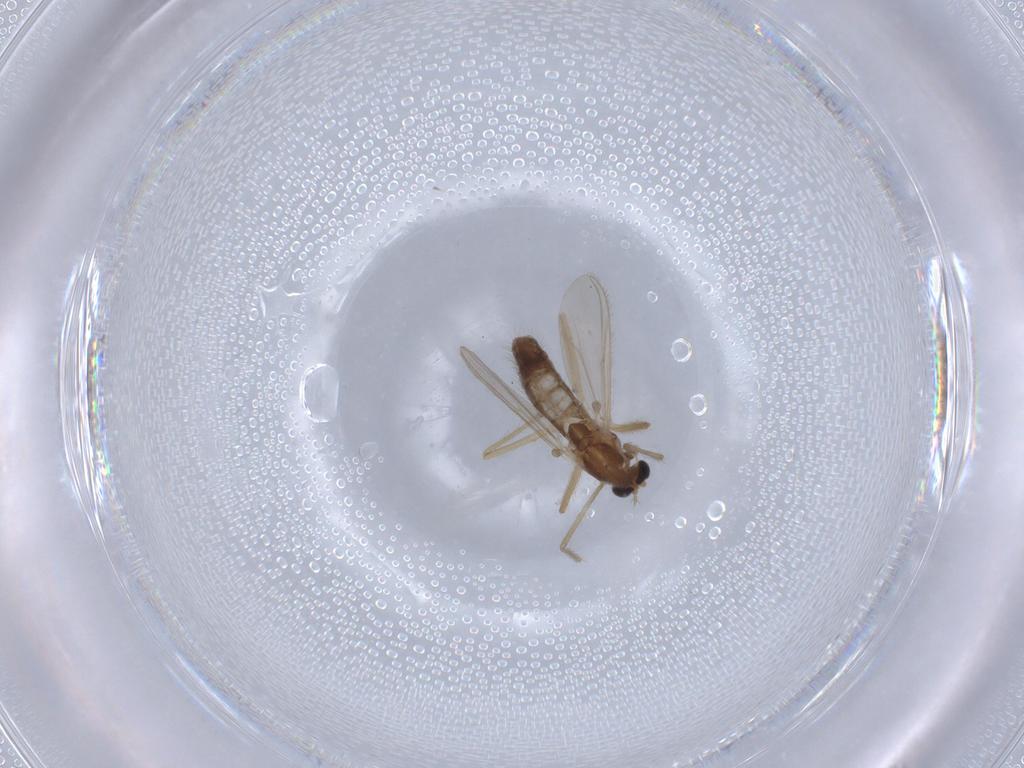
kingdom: Animalia
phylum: Arthropoda
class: Insecta
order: Diptera
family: Chironomidae
